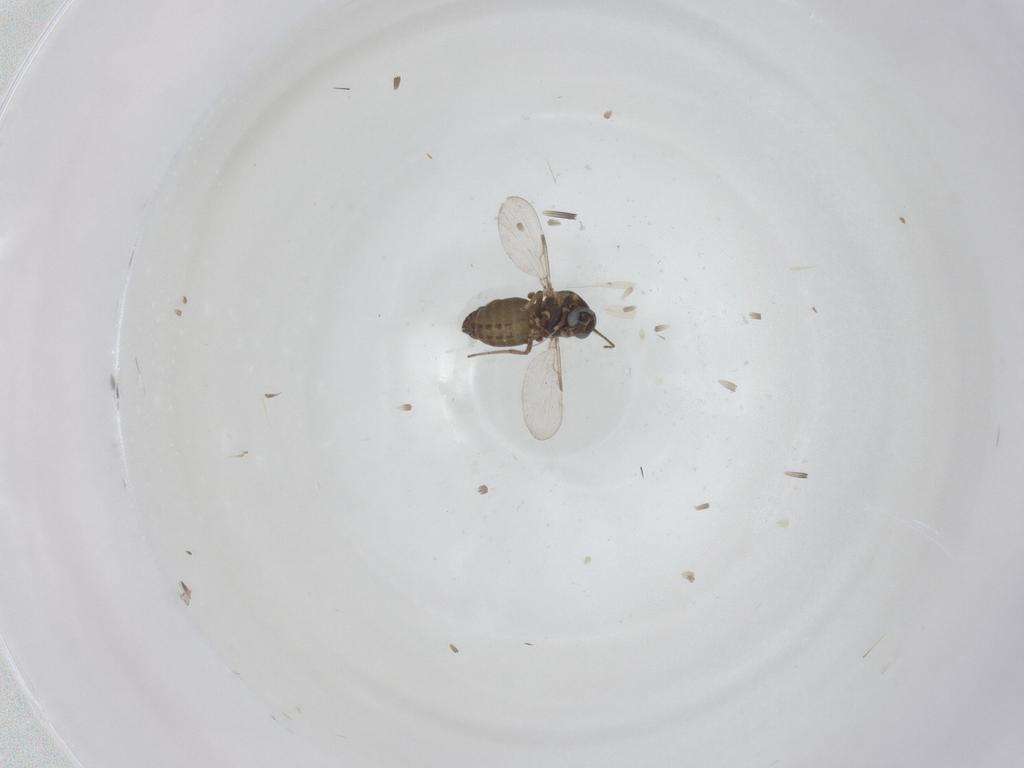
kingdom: Animalia
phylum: Arthropoda
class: Insecta
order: Diptera
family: Ceratopogonidae
